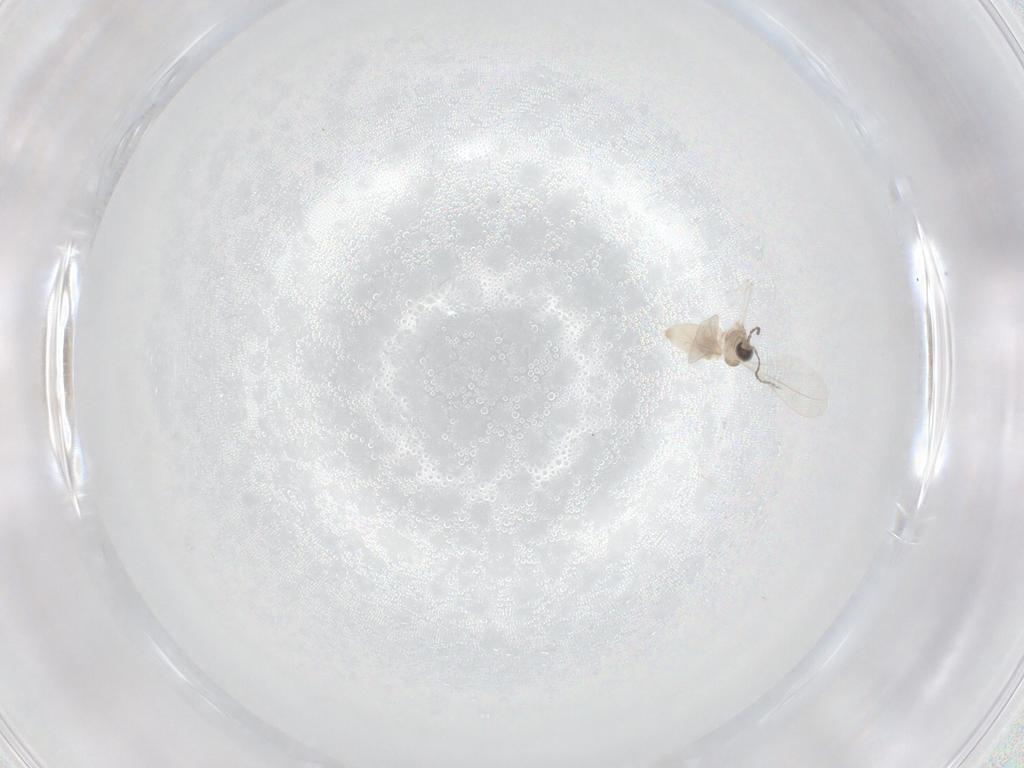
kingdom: Animalia
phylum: Arthropoda
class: Insecta
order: Diptera
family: Cecidomyiidae
